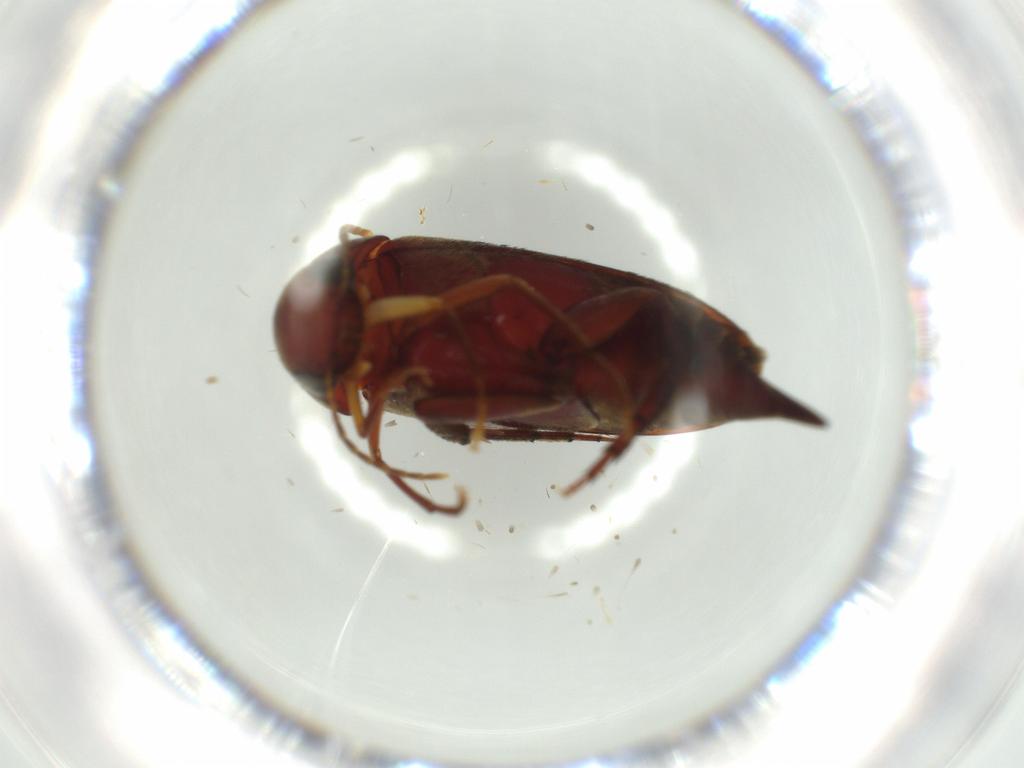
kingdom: Animalia
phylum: Arthropoda
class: Insecta
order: Coleoptera
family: Mordellidae
